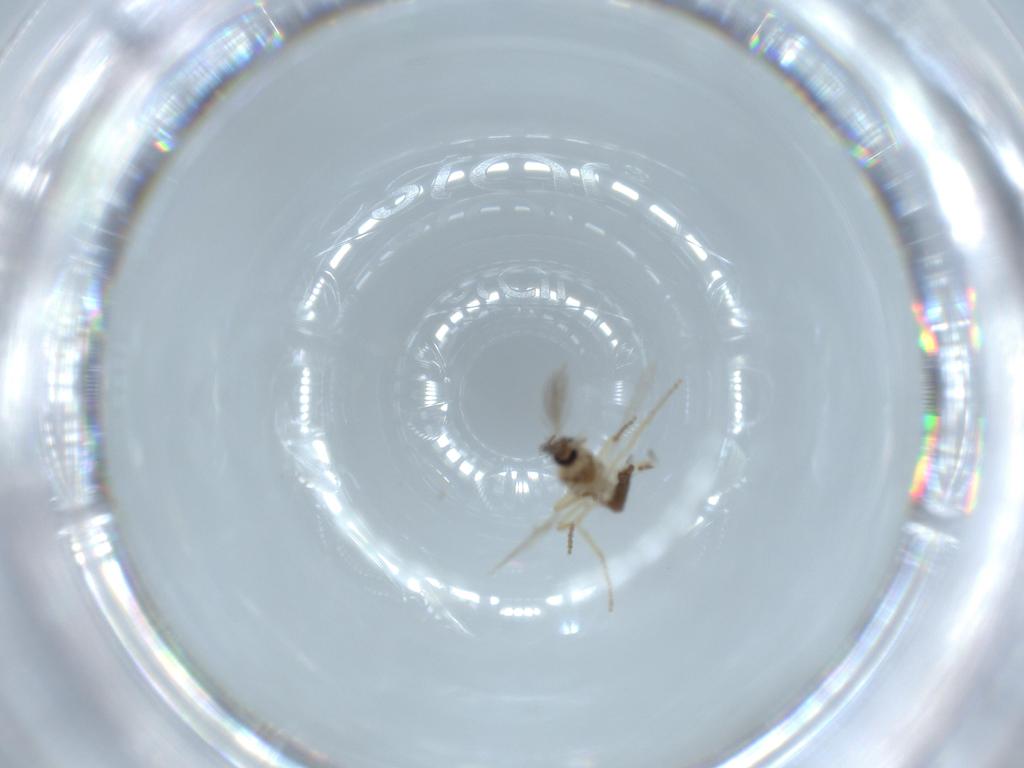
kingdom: Animalia
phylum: Arthropoda
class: Insecta
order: Diptera
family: Ceratopogonidae
